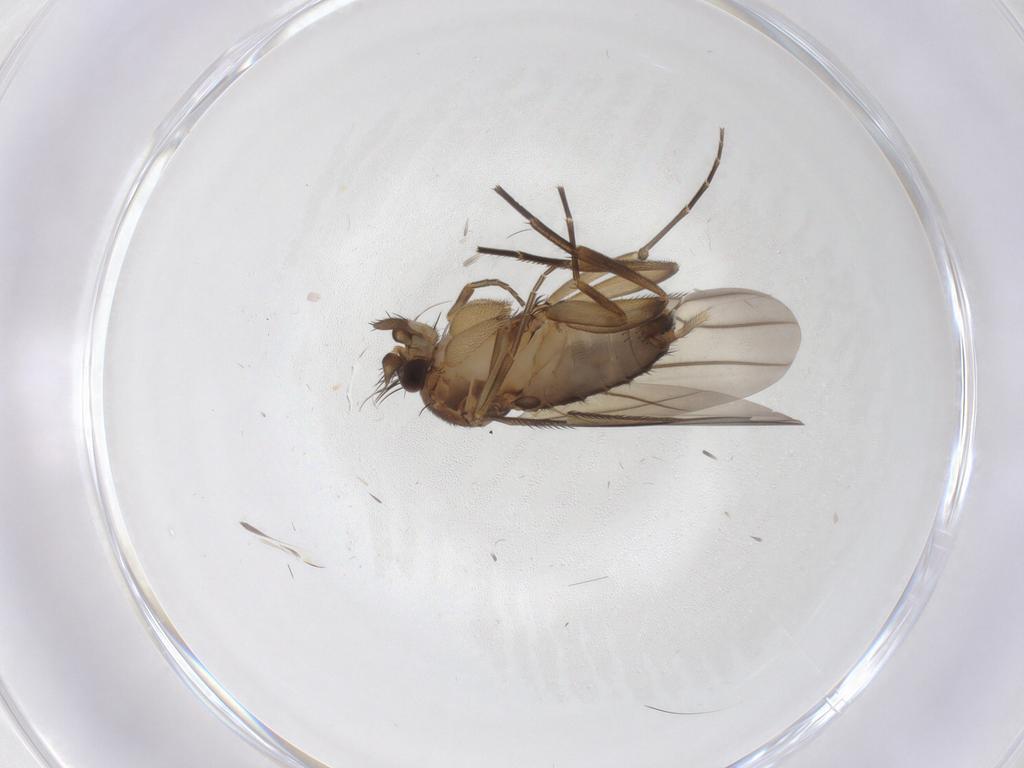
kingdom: Animalia
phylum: Arthropoda
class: Insecta
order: Diptera
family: Phoridae
